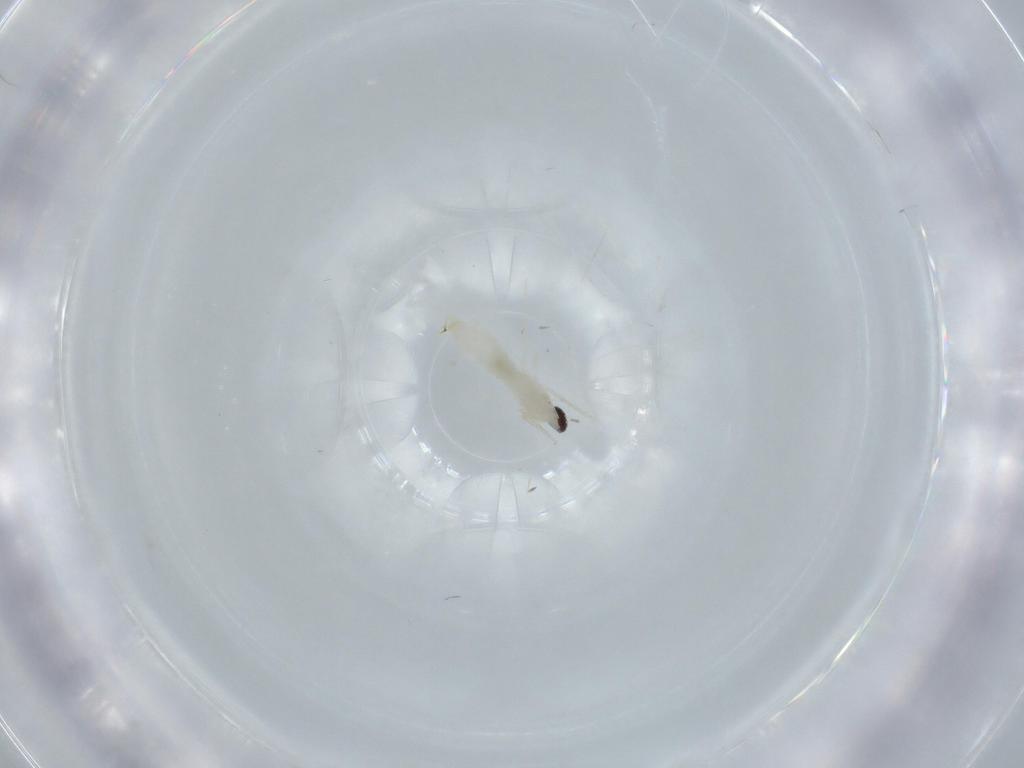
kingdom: Animalia
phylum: Arthropoda
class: Insecta
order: Diptera
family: Cecidomyiidae
